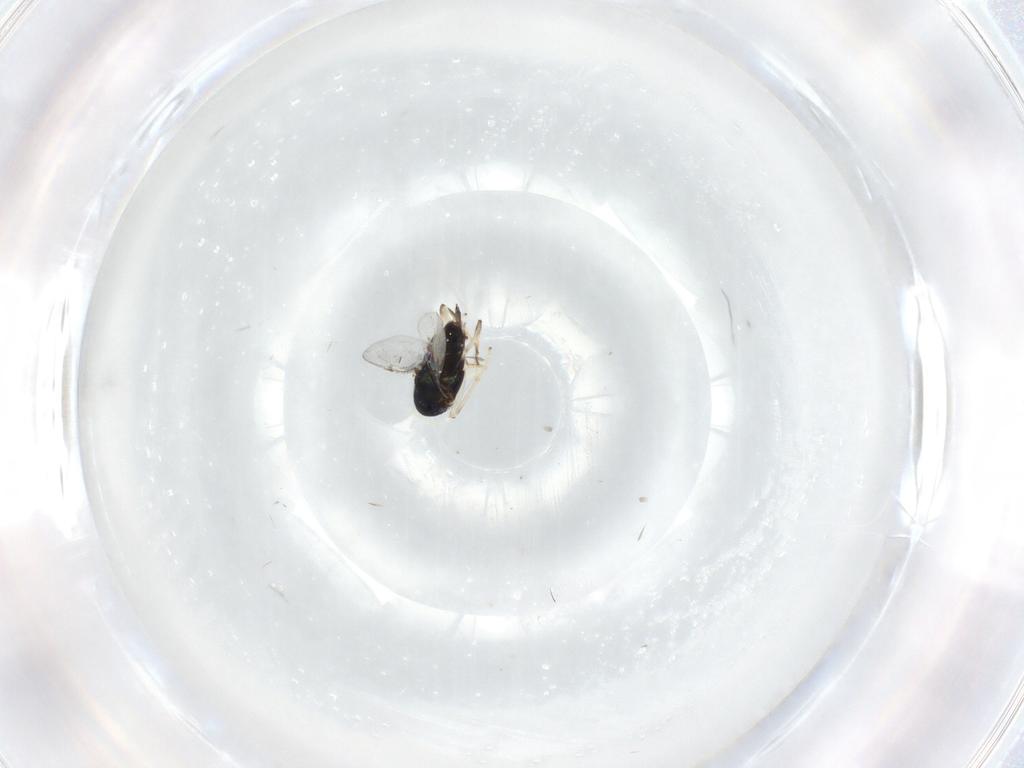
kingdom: Animalia
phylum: Arthropoda
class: Insecta
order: Hymenoptera
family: Encyrtidae
